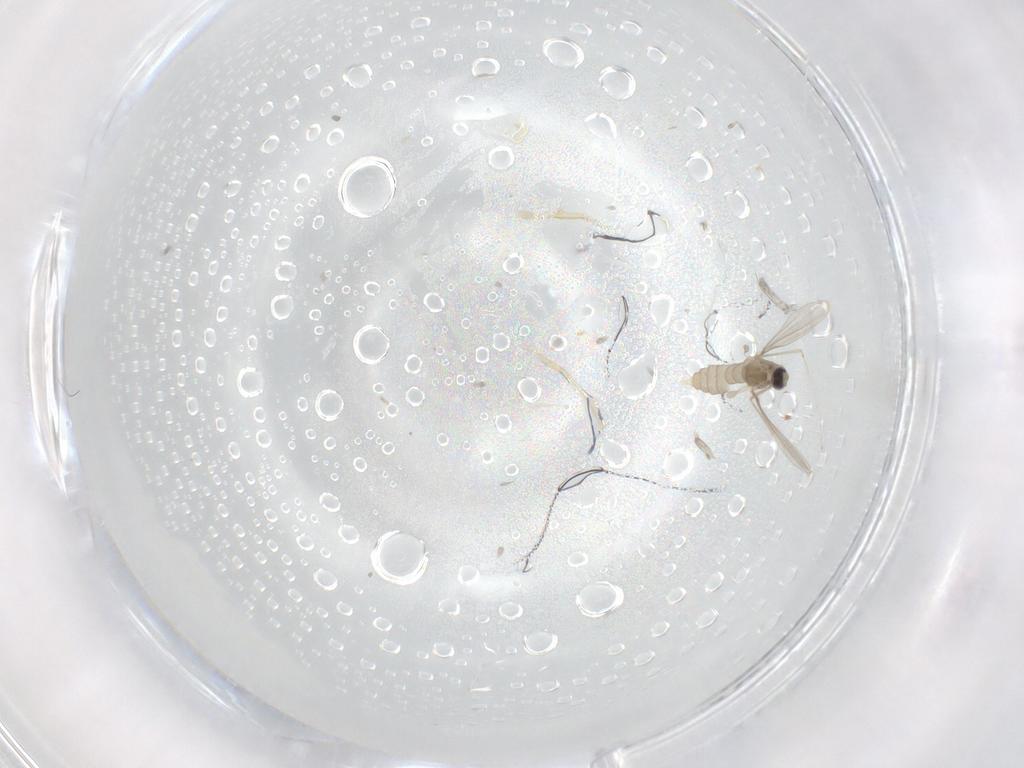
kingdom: Animalia
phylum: Arthropoda
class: Insecta
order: Diptera
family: Cecidomyiidae
